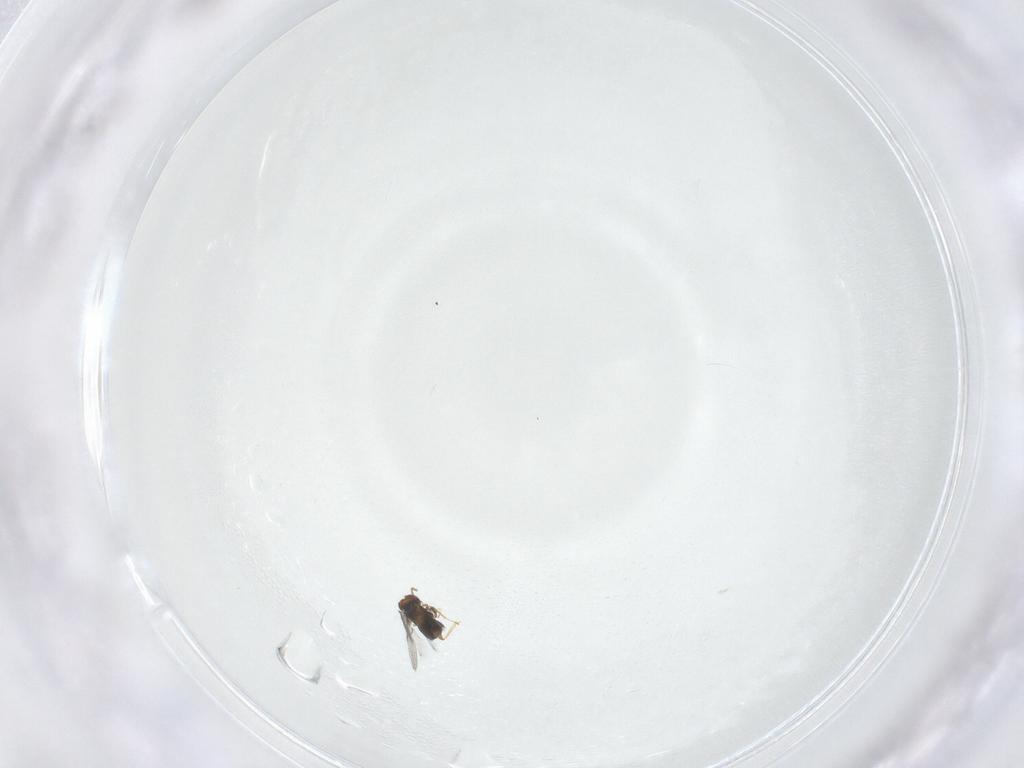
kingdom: Animalia
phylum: Arthropoda
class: Insecta
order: Hymenoptera
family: Trichogrammatidae
